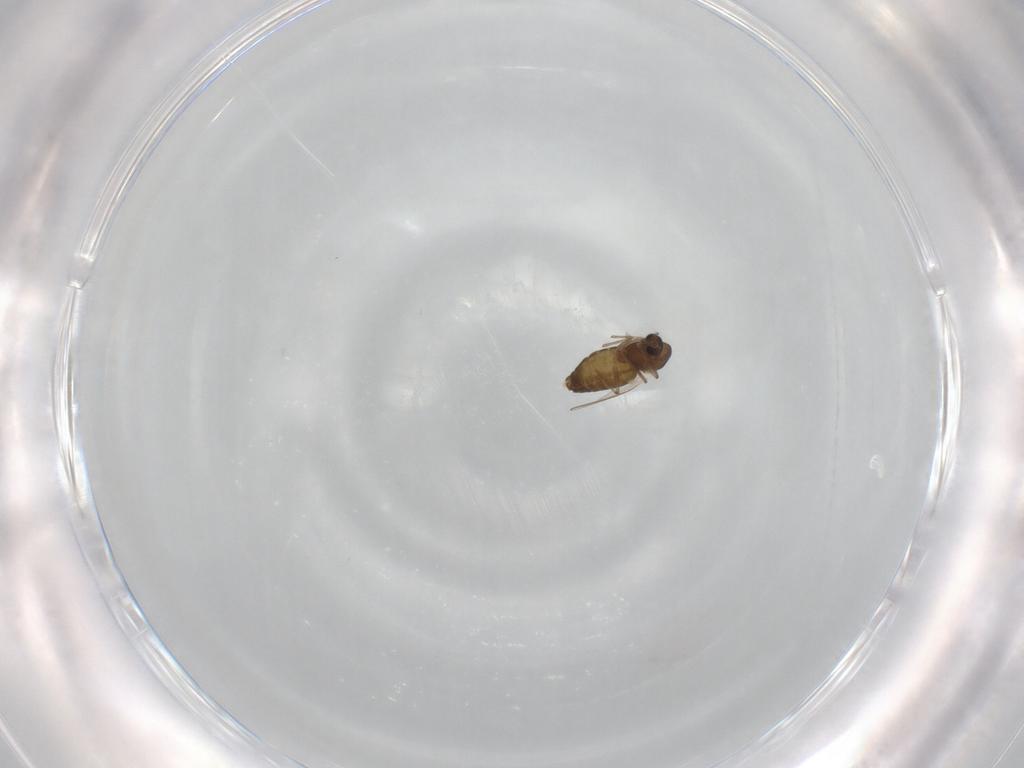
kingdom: Animalia
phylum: Arthropoda
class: Insecta
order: Diptera
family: Chironomidae
